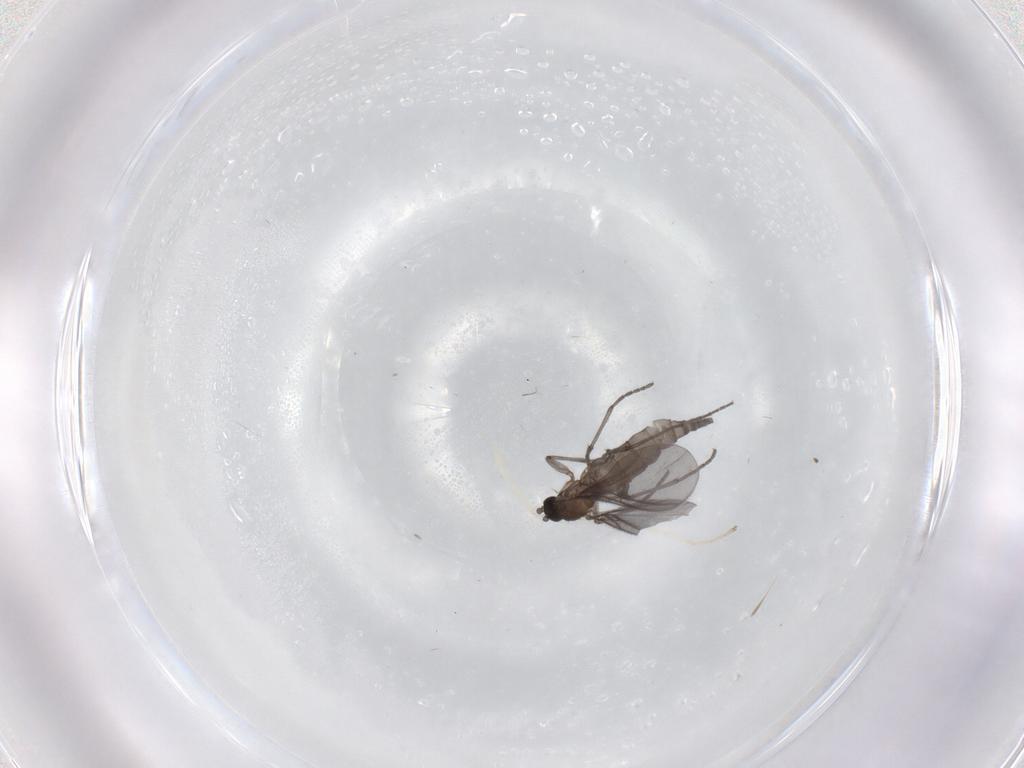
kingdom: Animalia
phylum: Arthropoda
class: Insecta
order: Diptera
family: Sciaridae
